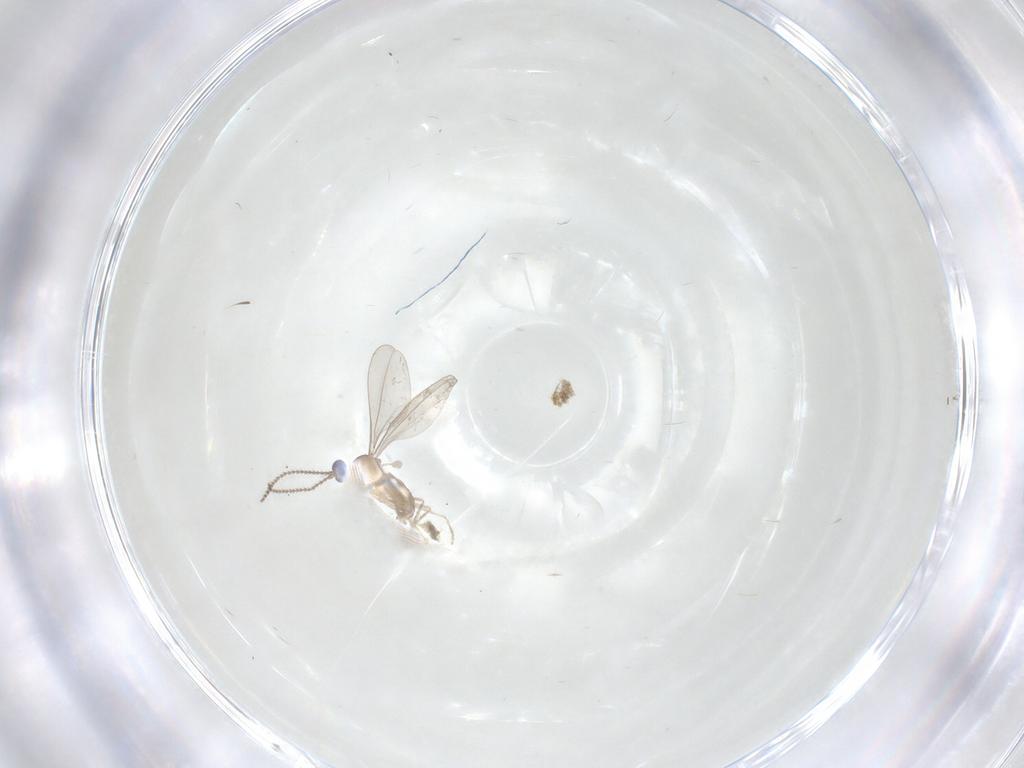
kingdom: Animalia
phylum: Arthropoda
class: Insecta
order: Diptera
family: Cecidomyiidae
